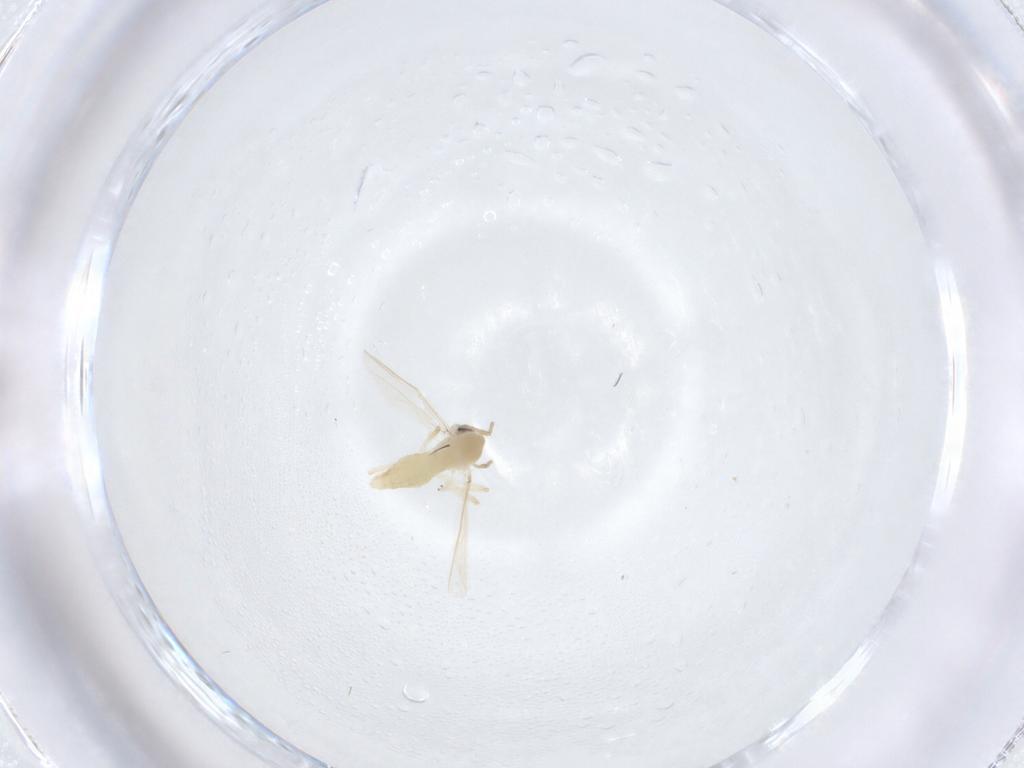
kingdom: Animalia
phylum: Arthropoda
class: Insecta
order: Diptera
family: Chironomidae
